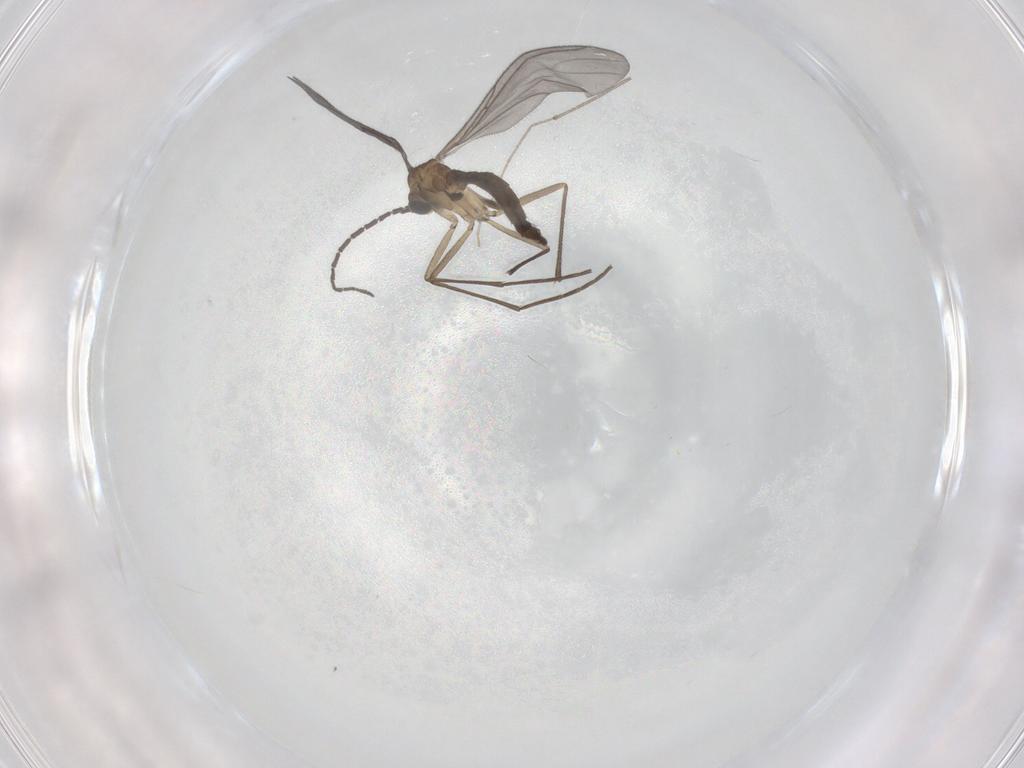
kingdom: Animalia
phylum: Arthropoda
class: Insecta
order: Diptera
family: Sciaridae
